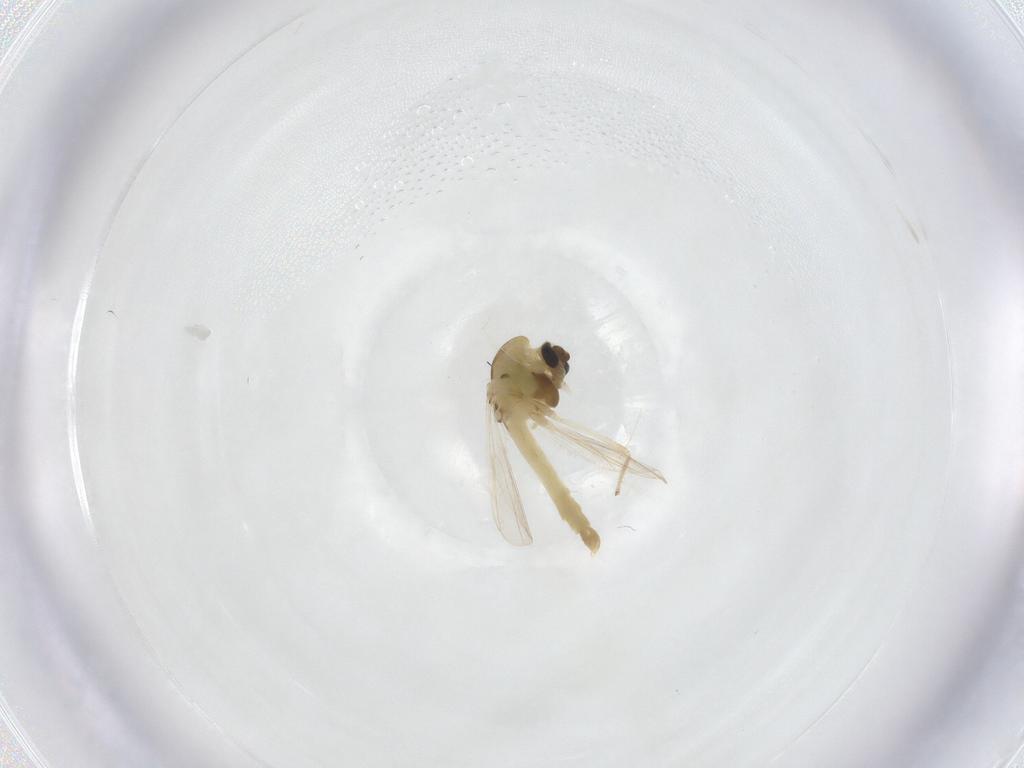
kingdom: Animalia
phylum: Arthropoda
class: Insecta
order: Diptera
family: Chironomidae
